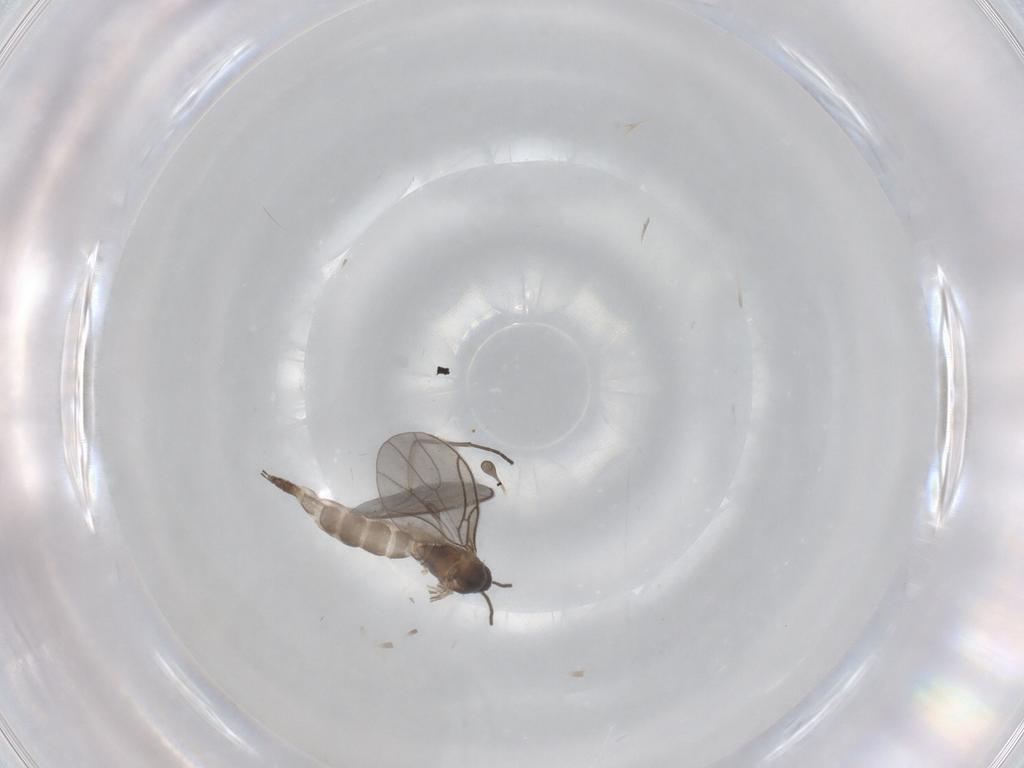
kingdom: Animalia
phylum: Arthropoda
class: Insecta
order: Diptera
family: Sciaridae
